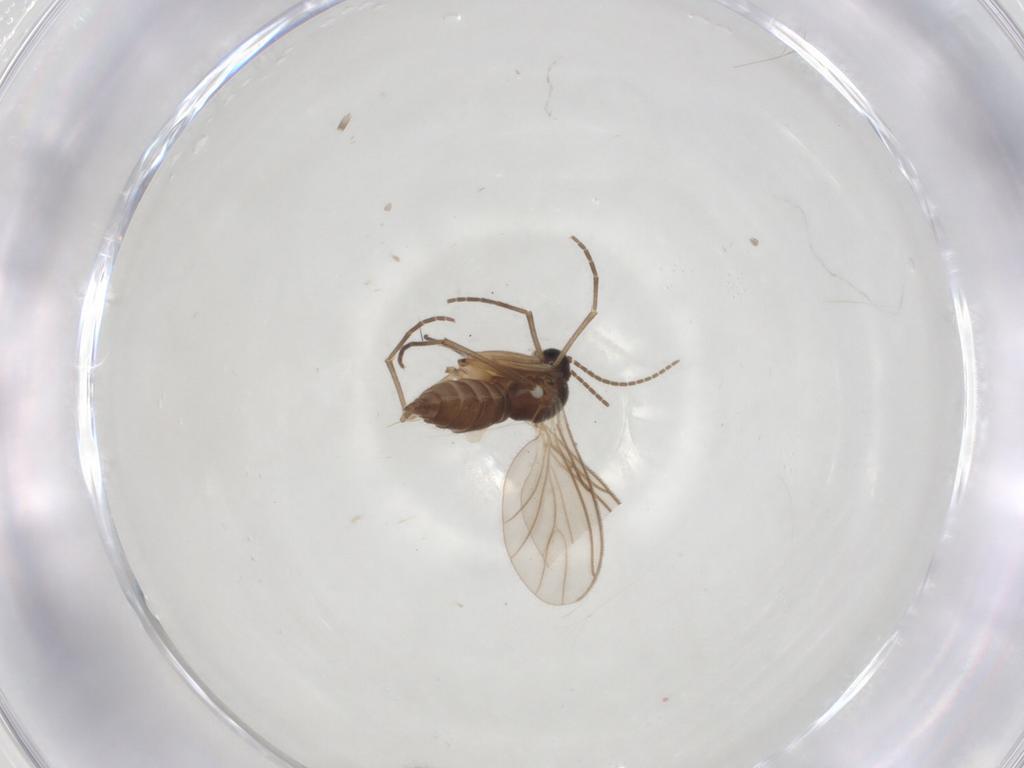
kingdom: Animalia
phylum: Arthropoda
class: Insecta
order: Diptera
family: Sciaridae
